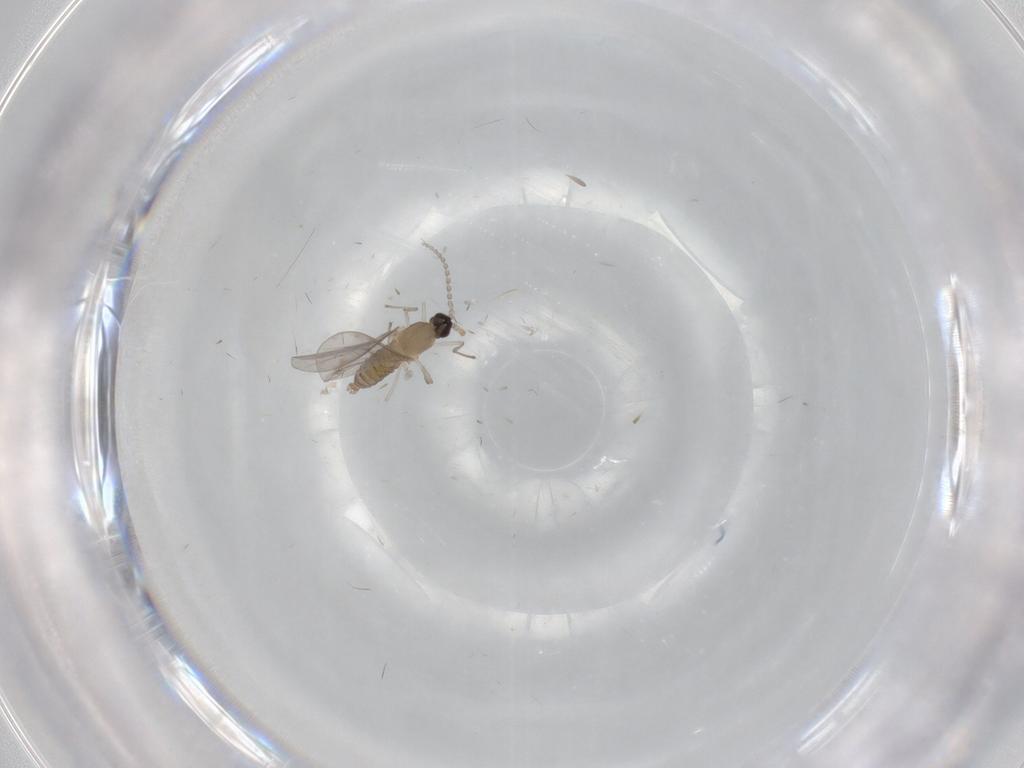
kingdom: Animalia
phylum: Arthropoda
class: Insecta
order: Diptera
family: Cecidomyiidae
